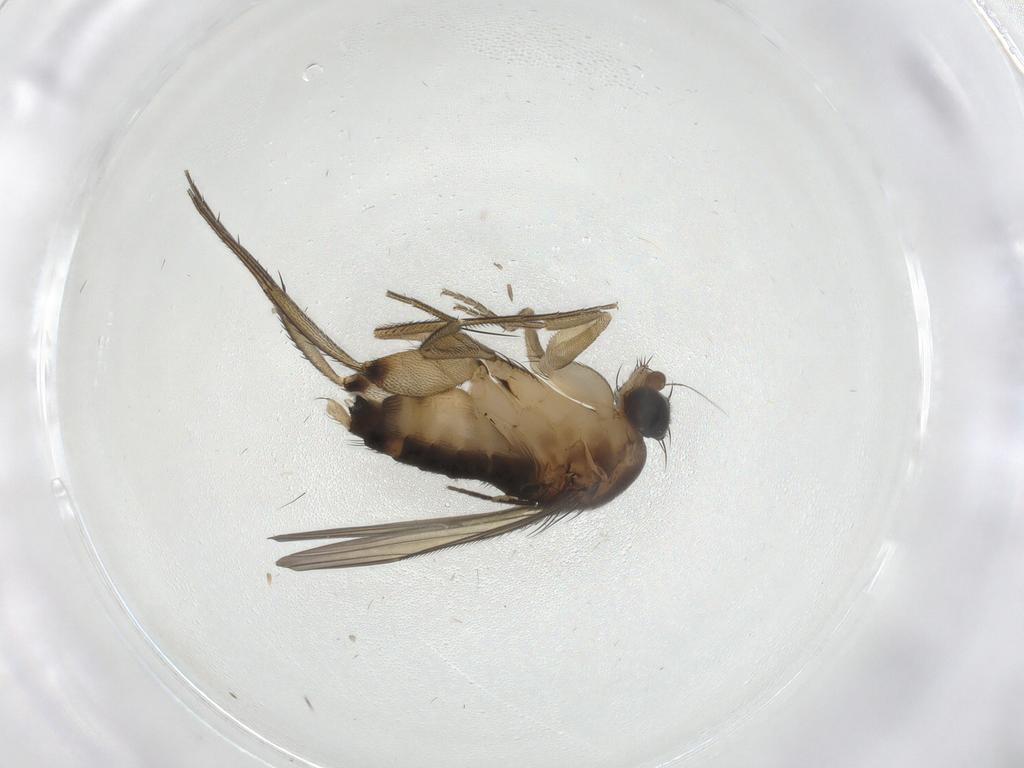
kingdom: Animalia
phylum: Arthropoda
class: Insecta
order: Diptera
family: Phoridae
